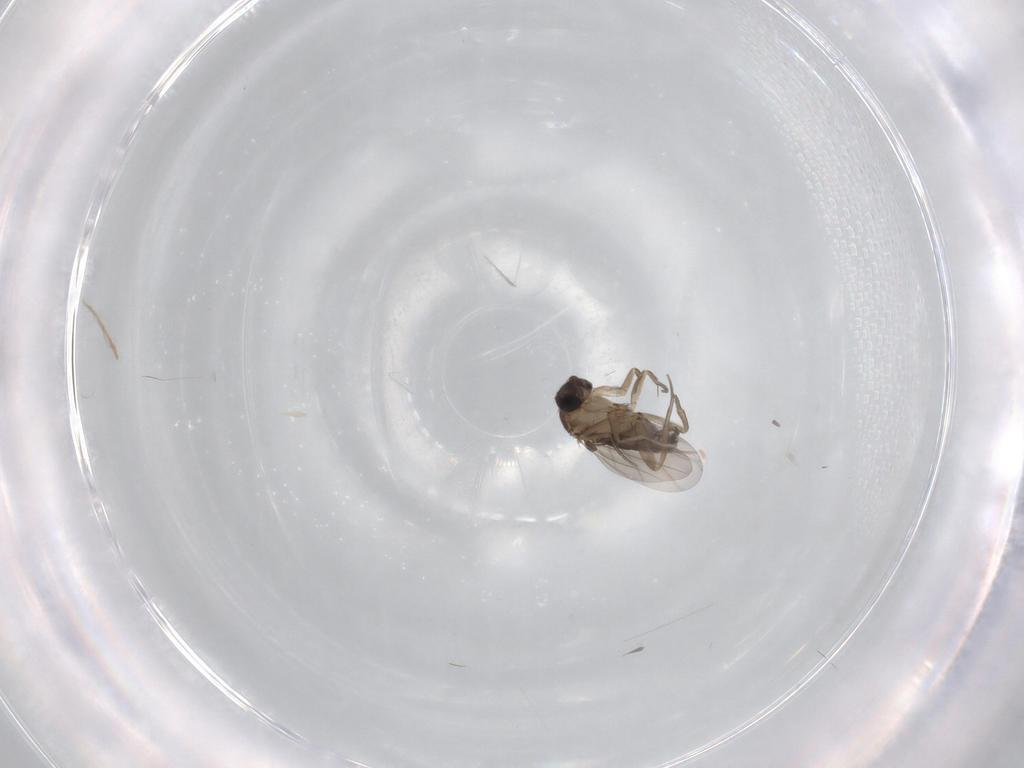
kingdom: Animalia
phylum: Arthropoda
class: Insecta
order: Diptera
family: Phoridae
